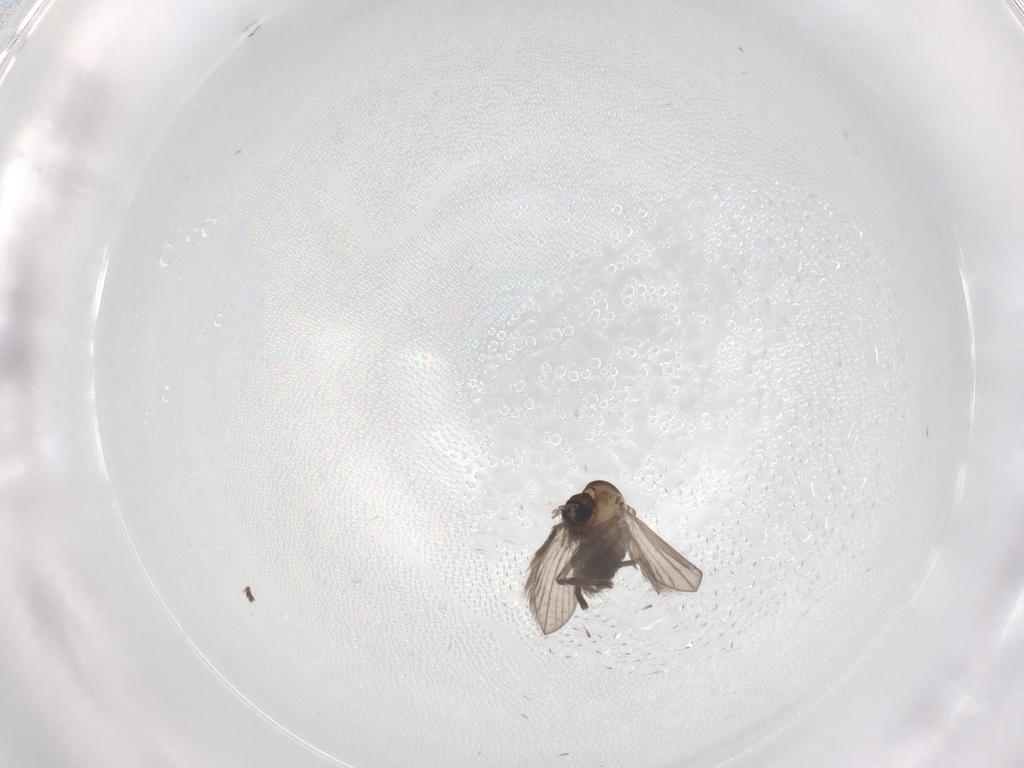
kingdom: Animalia
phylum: Arthropoda
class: Insecta
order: Diptera
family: Psychodidae
